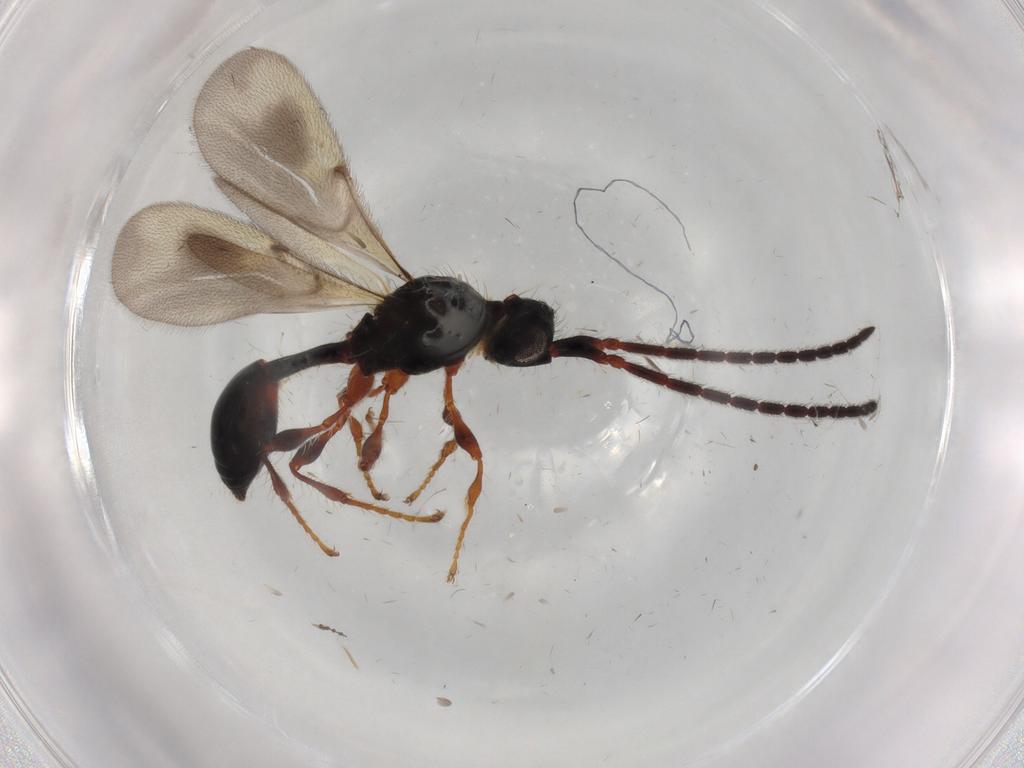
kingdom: Animalia
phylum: Arthropoda
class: Insecta
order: Hymenoptera
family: Diapriidae
